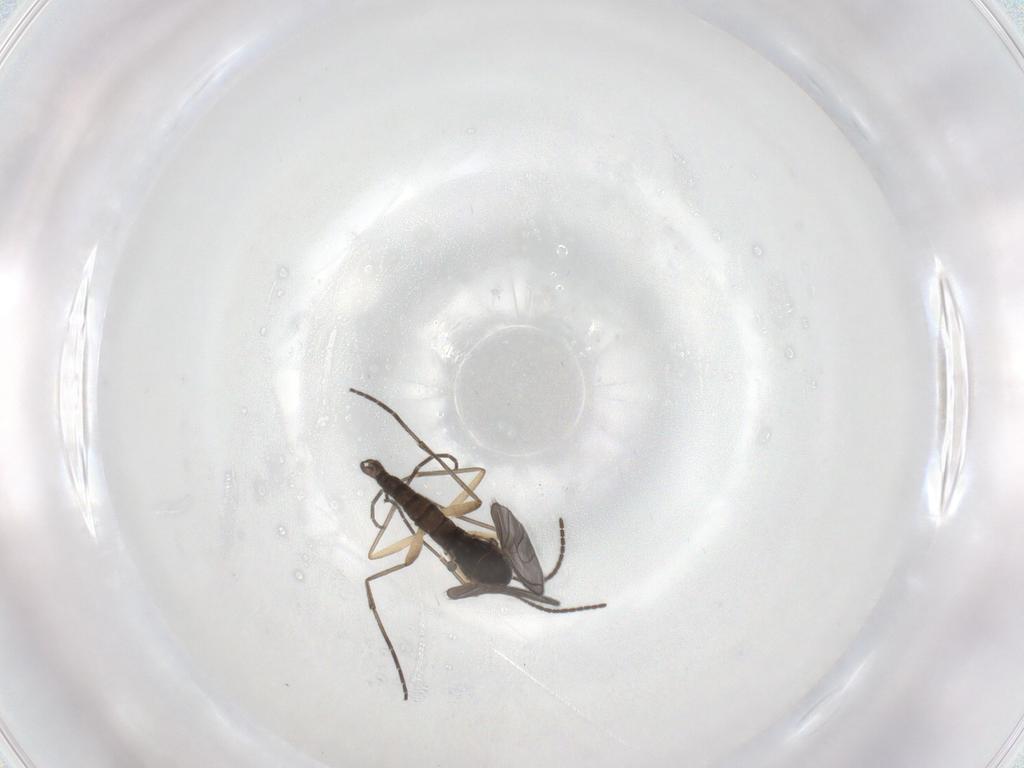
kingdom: Animalia
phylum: Arthropoda
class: Insecta
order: Diptera
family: Sciaridae
